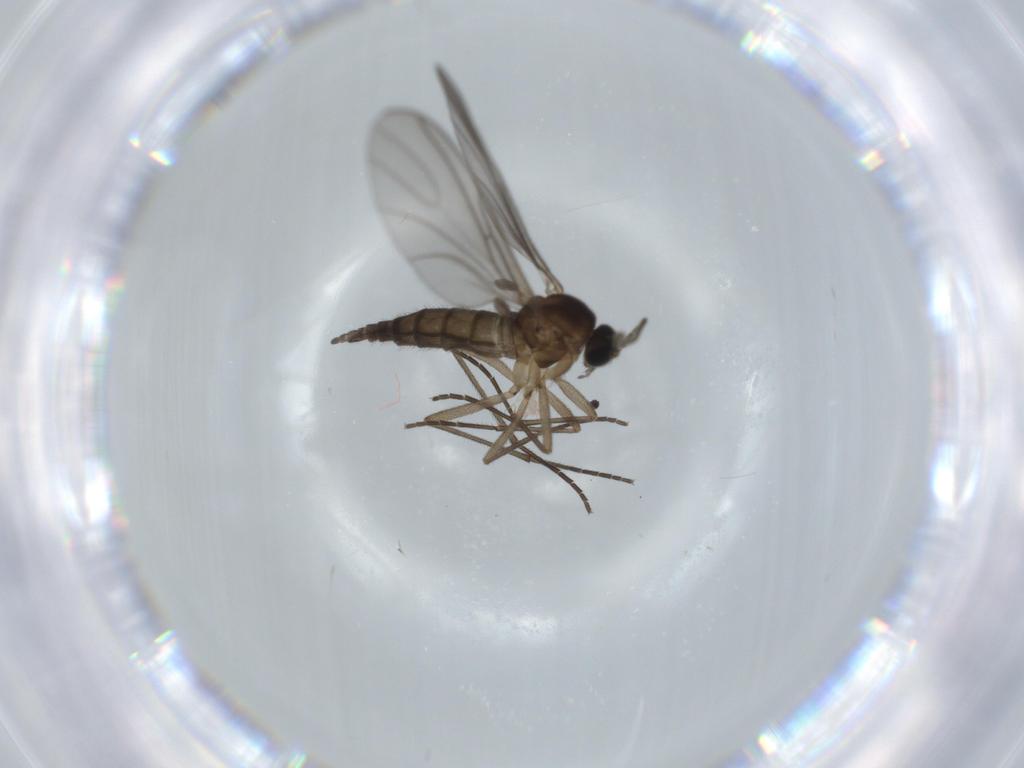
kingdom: Animalia
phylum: Arthropoda
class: Insecta
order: Diptera
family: Sciaridae
